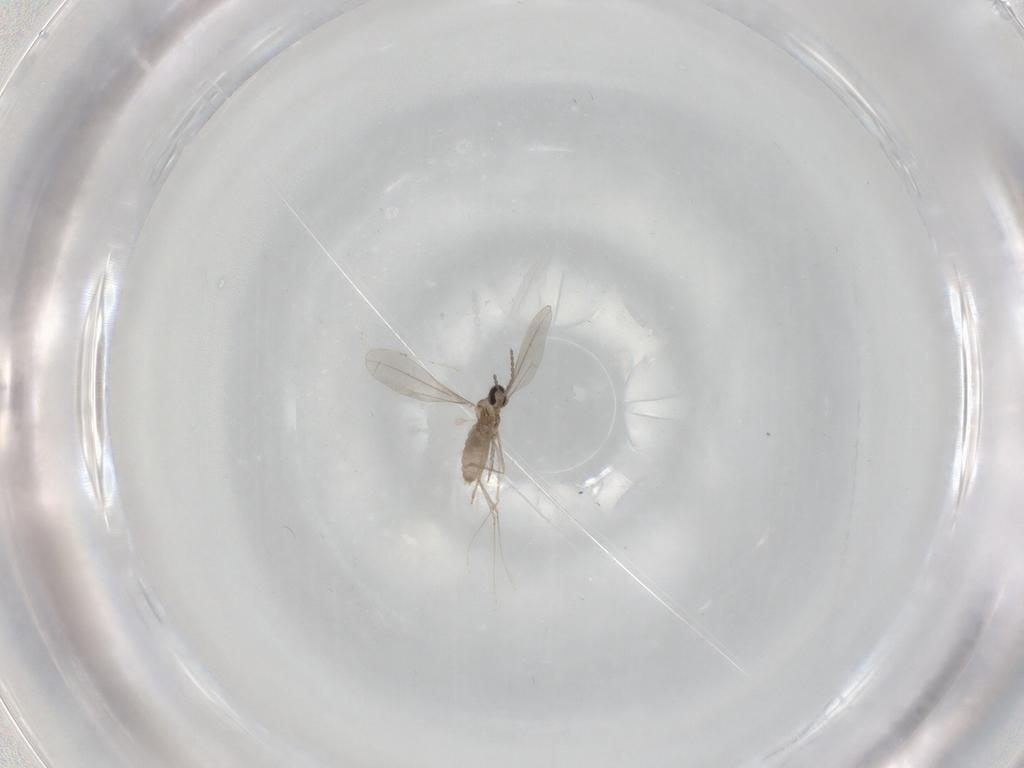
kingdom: Animalia
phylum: Arthropoda
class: Insecta
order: Diptera
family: Cecidomyiidae
